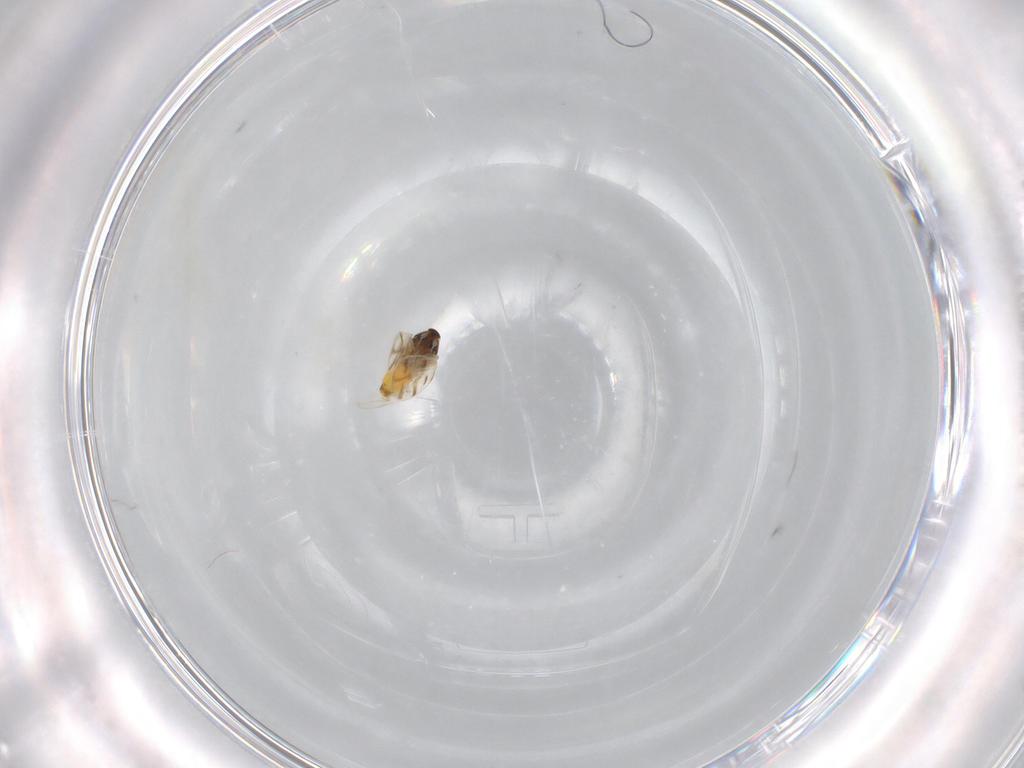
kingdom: Animalia
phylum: Arthropoda
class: Insecta
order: Hemiptera
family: Aleyrodidae
